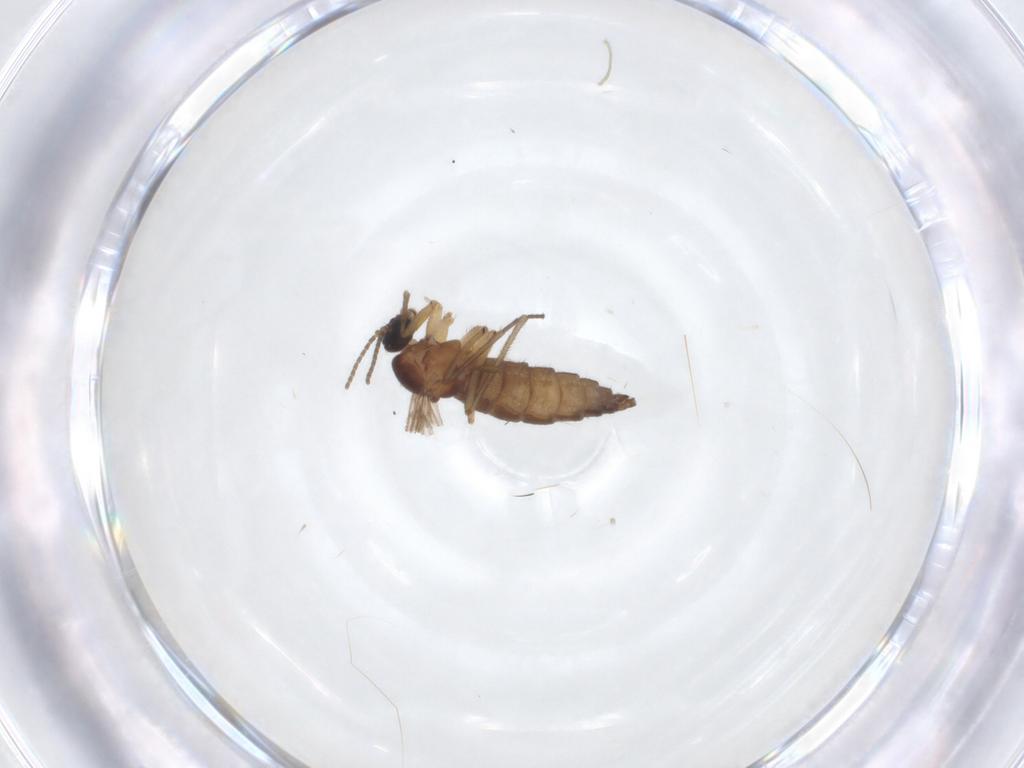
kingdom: Animalia
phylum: Arthropoda
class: Insecta
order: Diptera
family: Sciaridae
